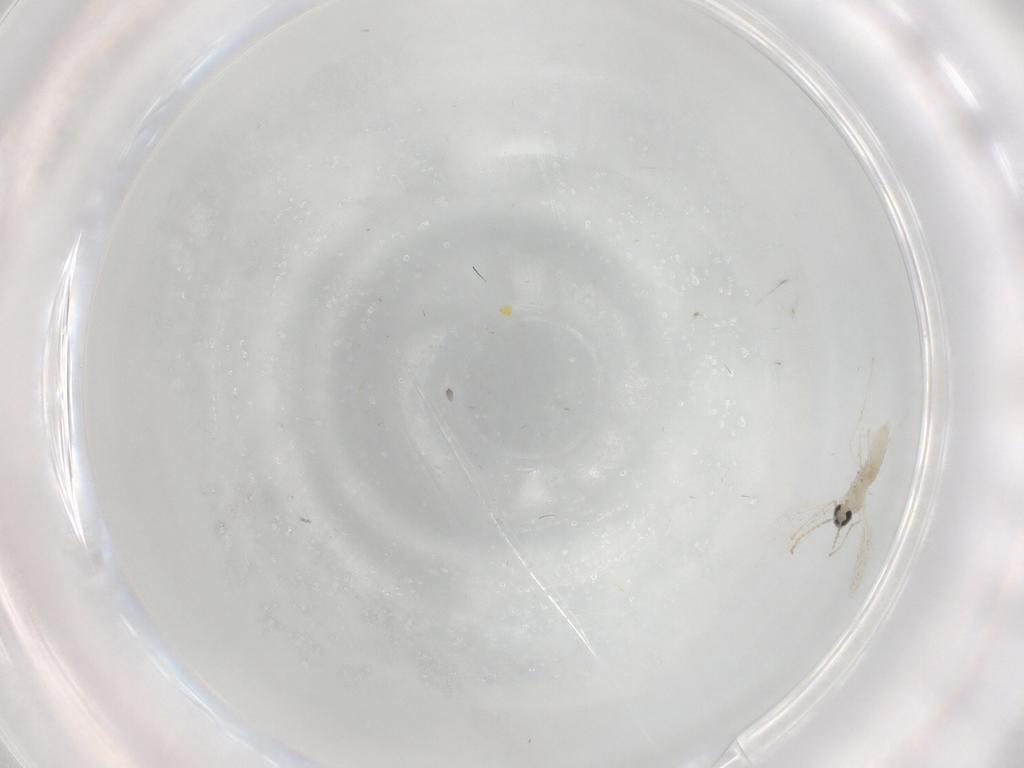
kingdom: Animalia
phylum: Arthropoda
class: Insecta
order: Diptera
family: Cecidomyiidae
